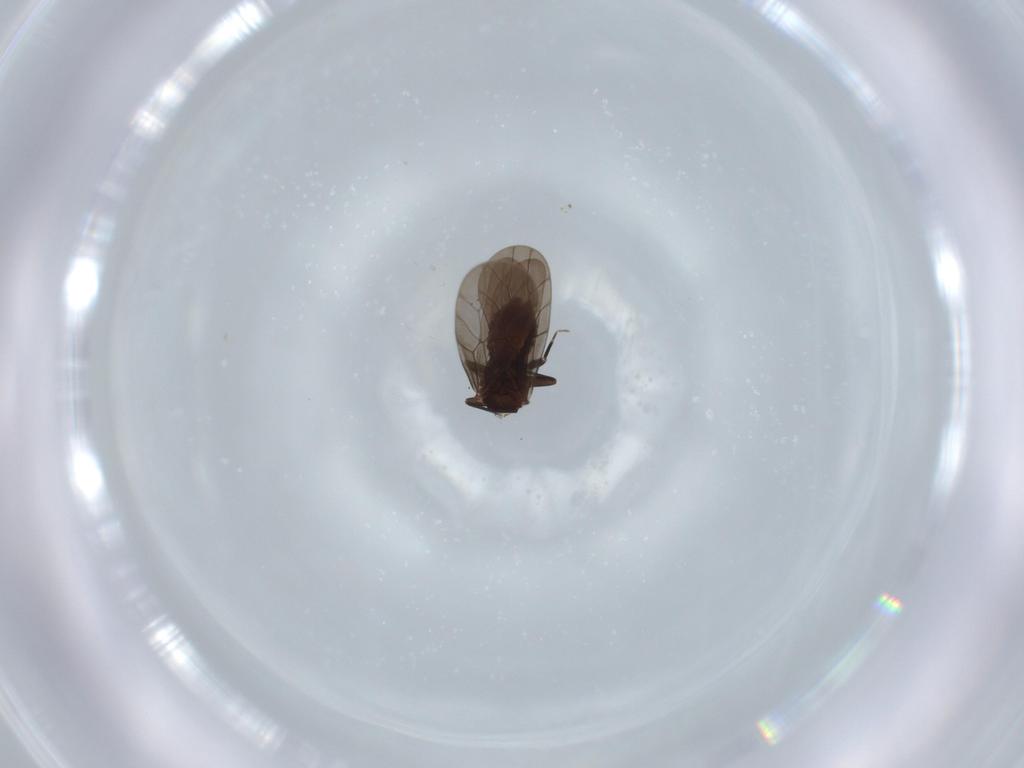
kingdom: Animalia
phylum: Arthropoda
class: Insecta
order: Psocodea
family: Lepidopsocidae
